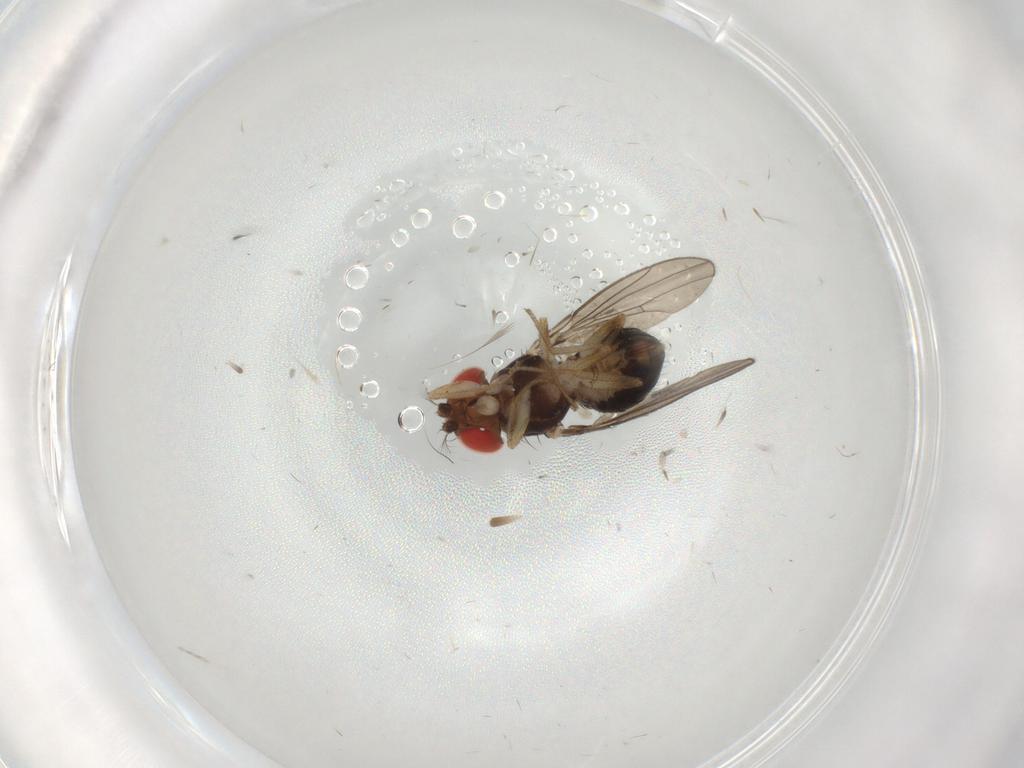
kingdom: Animalia
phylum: Arthropoda
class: Insecta
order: Diptera
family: Drosophilidae
